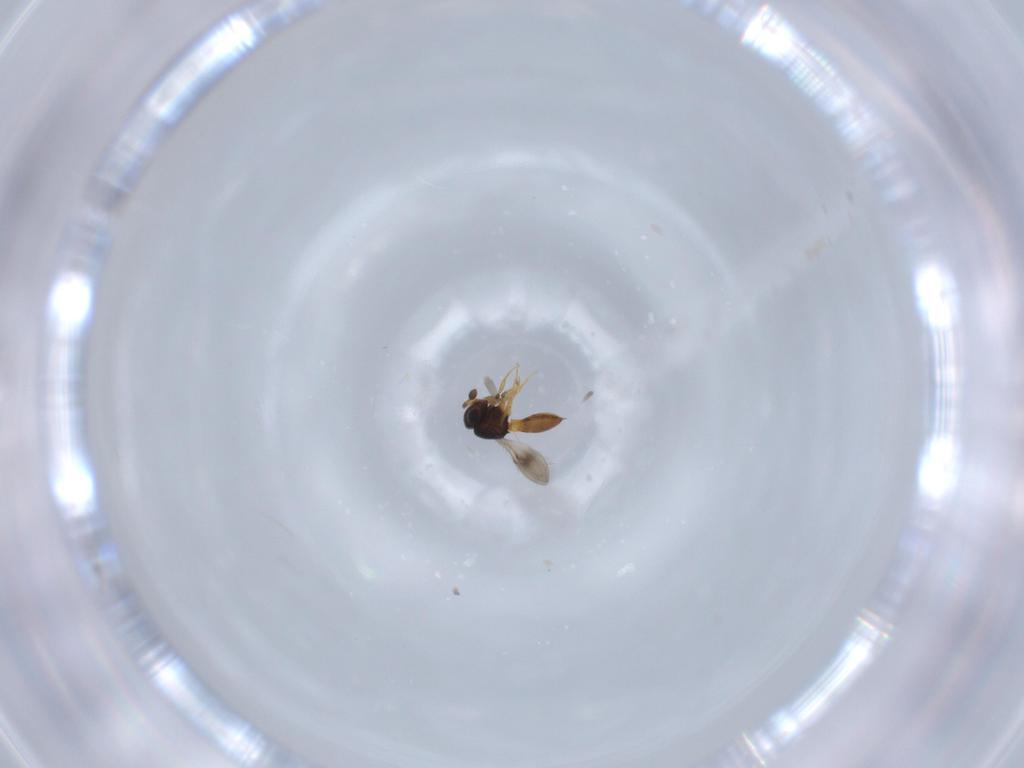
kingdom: Animalia
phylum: Arthropoda
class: Insecta
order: Hymenoptera
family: Scelionidae
